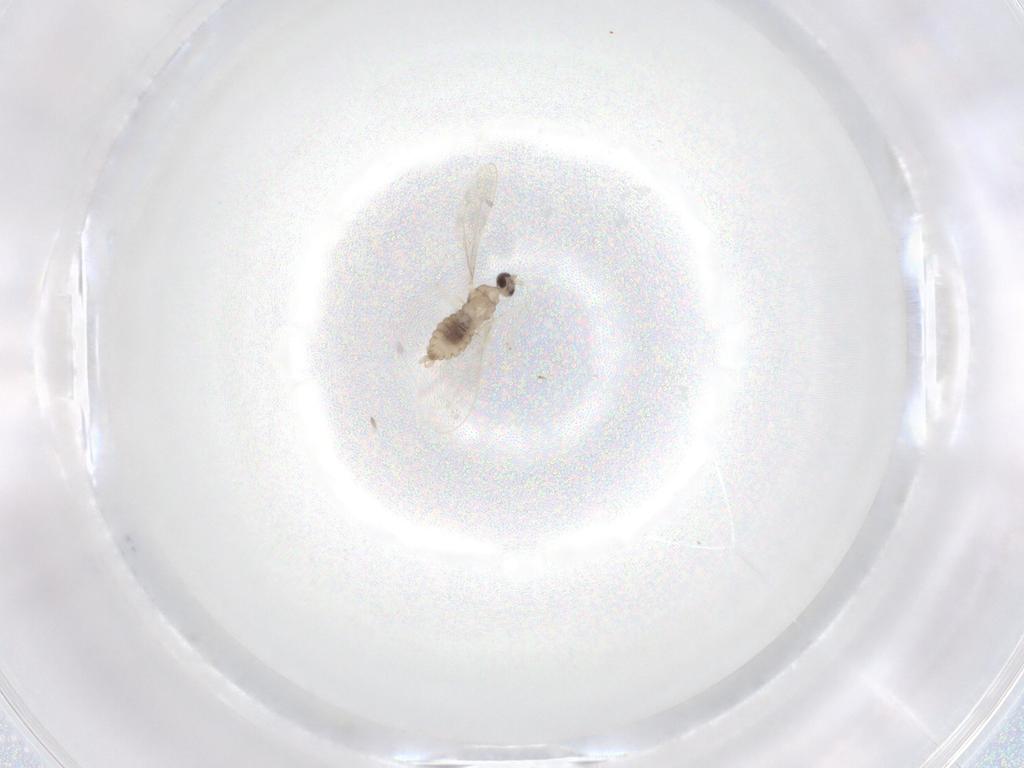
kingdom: Animalia
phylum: Arthropoda
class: Insecta
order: Diptera
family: Cecidomyiidae
